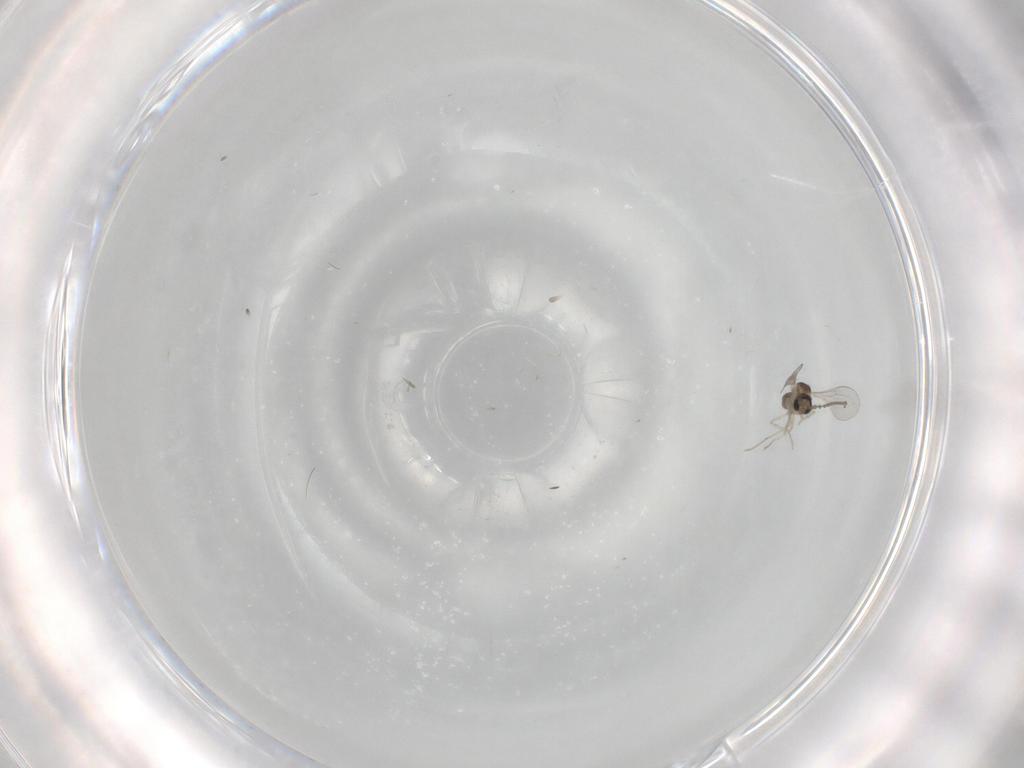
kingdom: Animalia
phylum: Arthropoda
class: Insecta
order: Diptera
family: Cecidomyiidae
